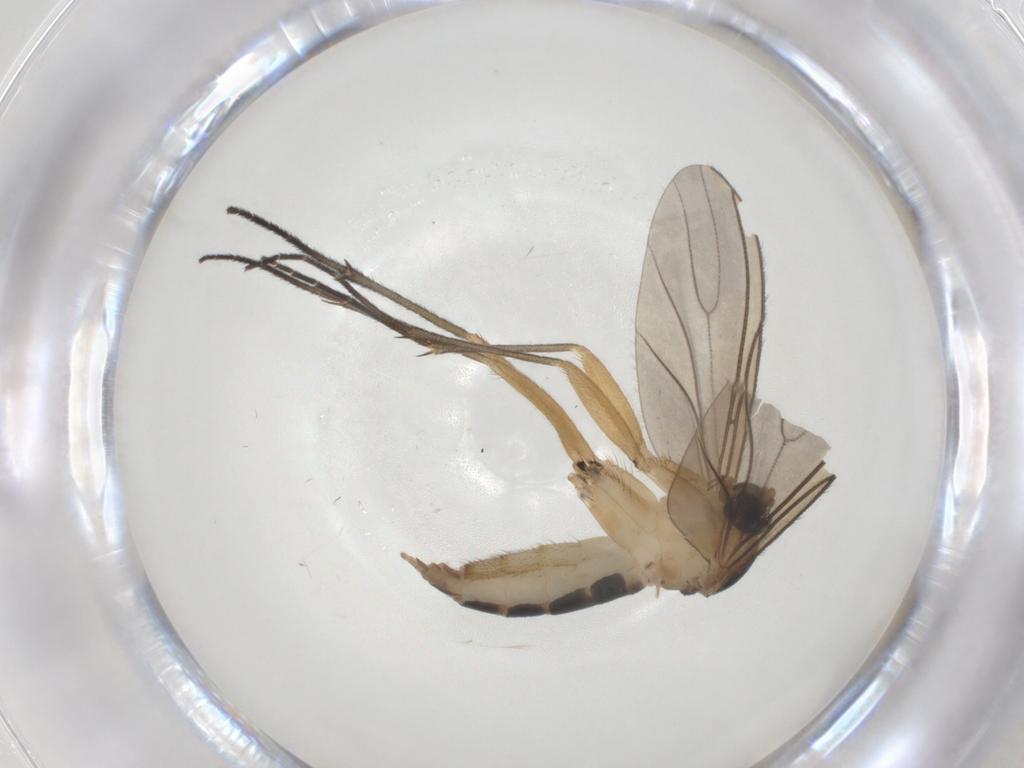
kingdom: Animalia
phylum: Arthropoda
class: Insecta
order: Diptera
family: Sciaridae
